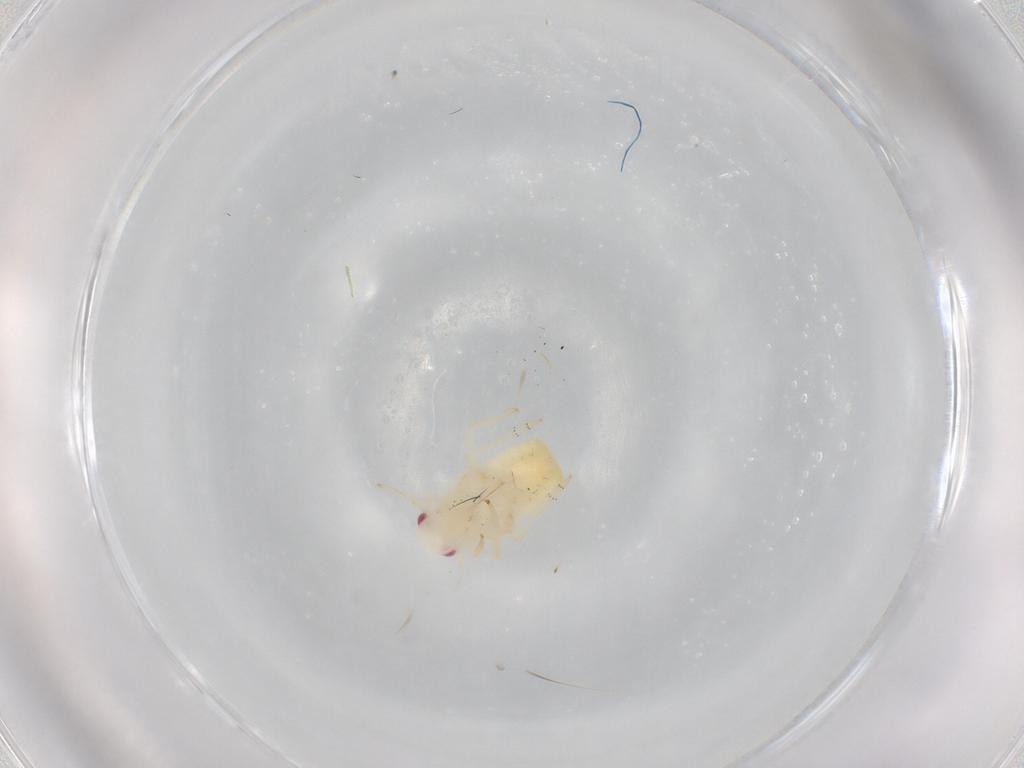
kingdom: Animalia
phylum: Arthropoda
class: Insecta
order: Hemiptera
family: Flatidae
